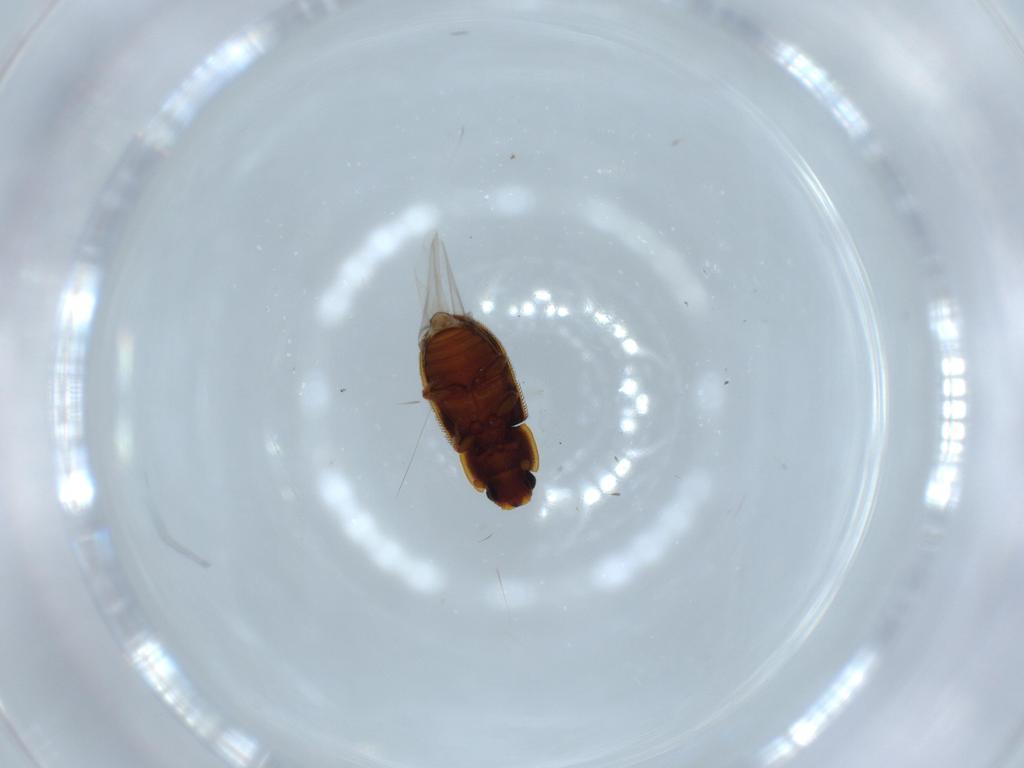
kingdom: Animalia
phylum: Arthropoda
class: Insecta
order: Coleoptera
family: Zopheridae
